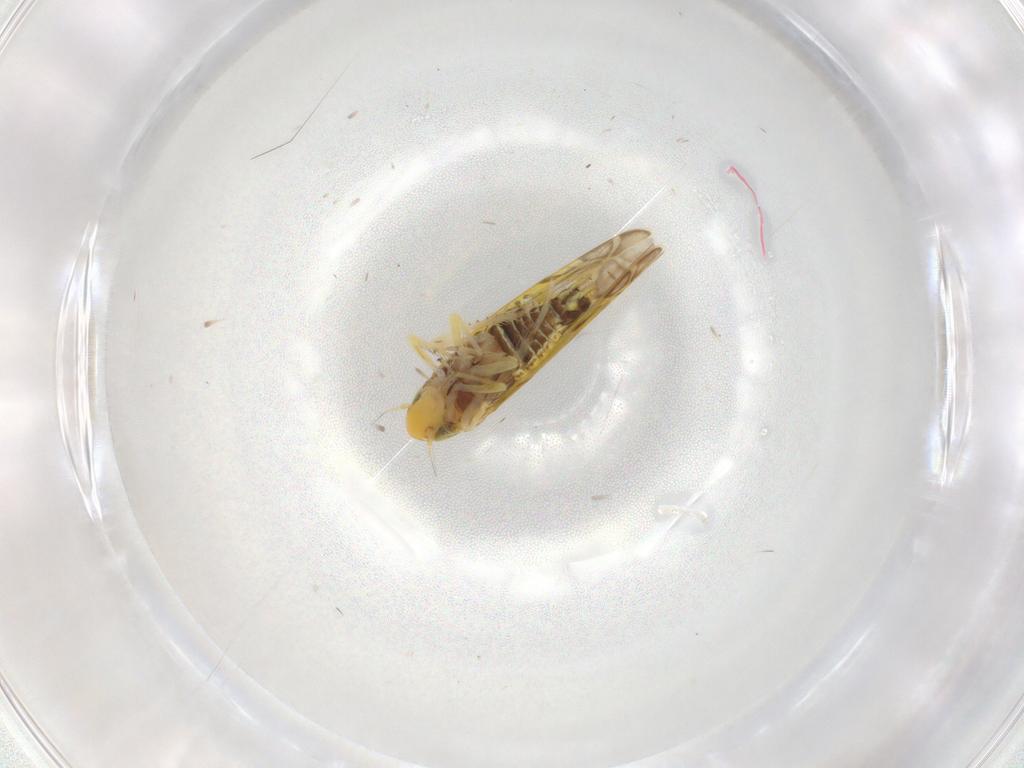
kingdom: Animalia
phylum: Arthropoda
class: Insecta
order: Hemiptera
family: Cicadellidae
